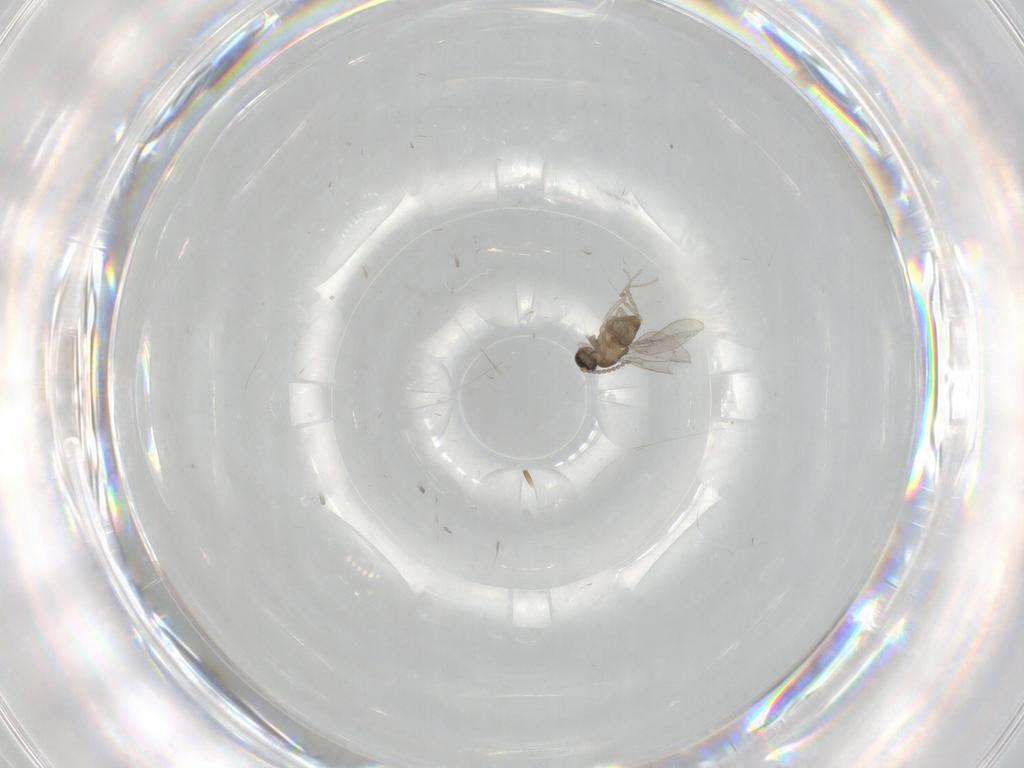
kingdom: Animalia
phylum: Arthropoda
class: Insecta
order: Diptera
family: Cecidomyiidae
